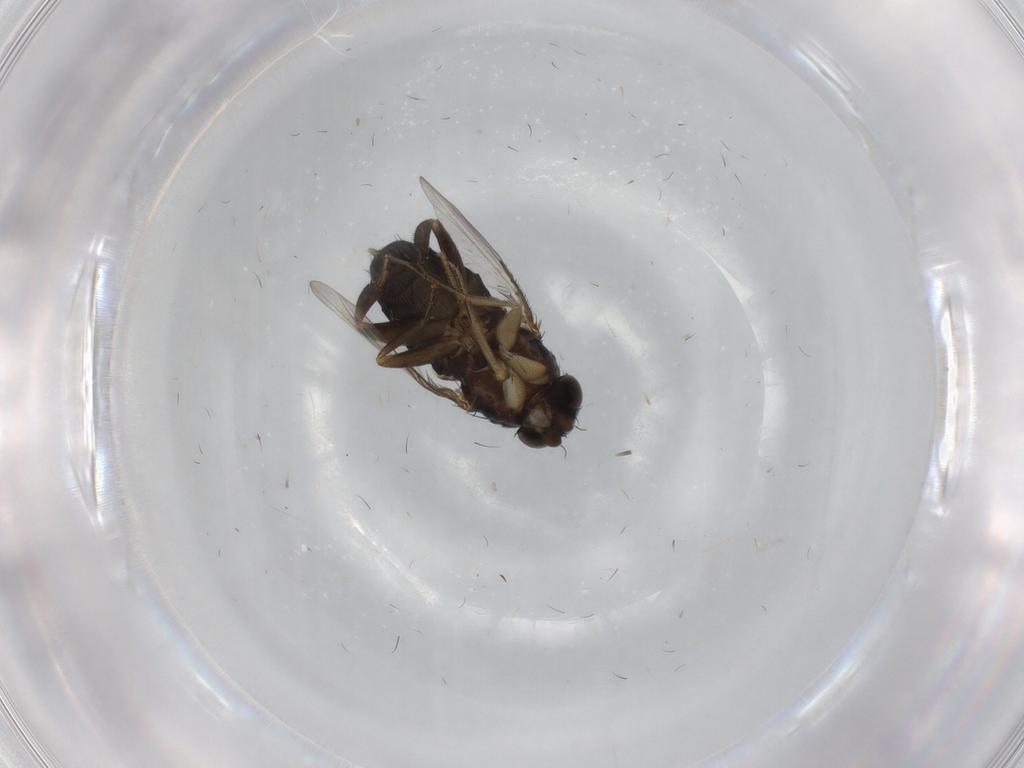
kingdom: Animalia
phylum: Arthropoda
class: Insecta
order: Diptera
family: Phoridae
